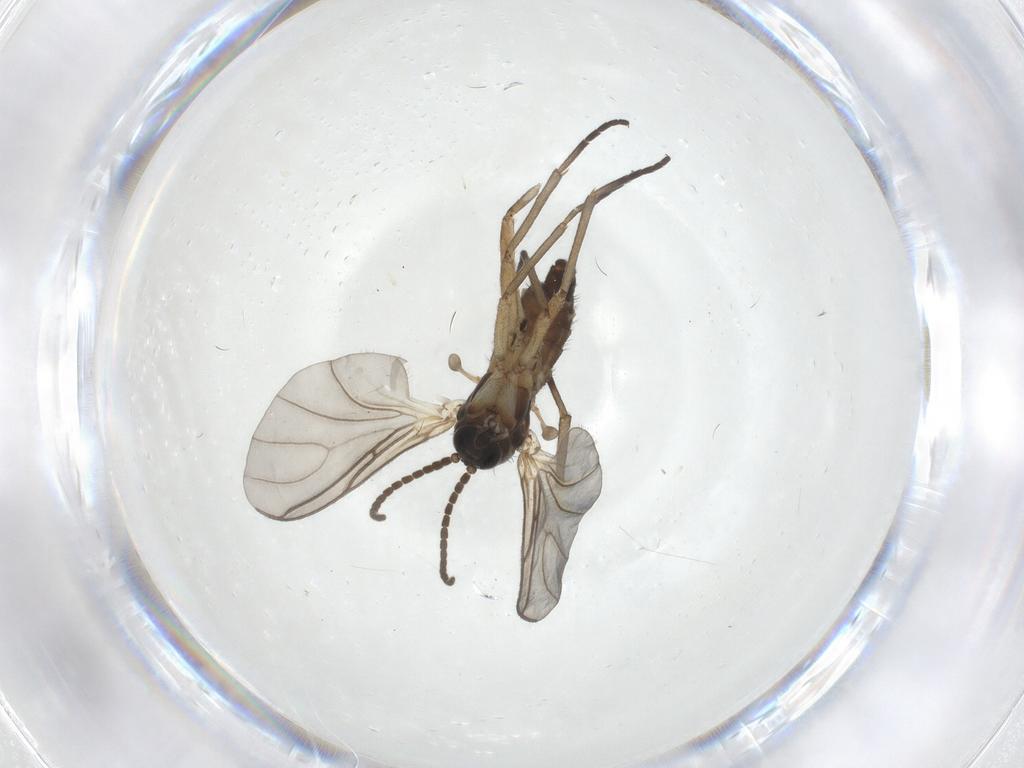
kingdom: Animalia
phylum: Arthropoda
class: Insecta
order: Diptera
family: Sciaridae
